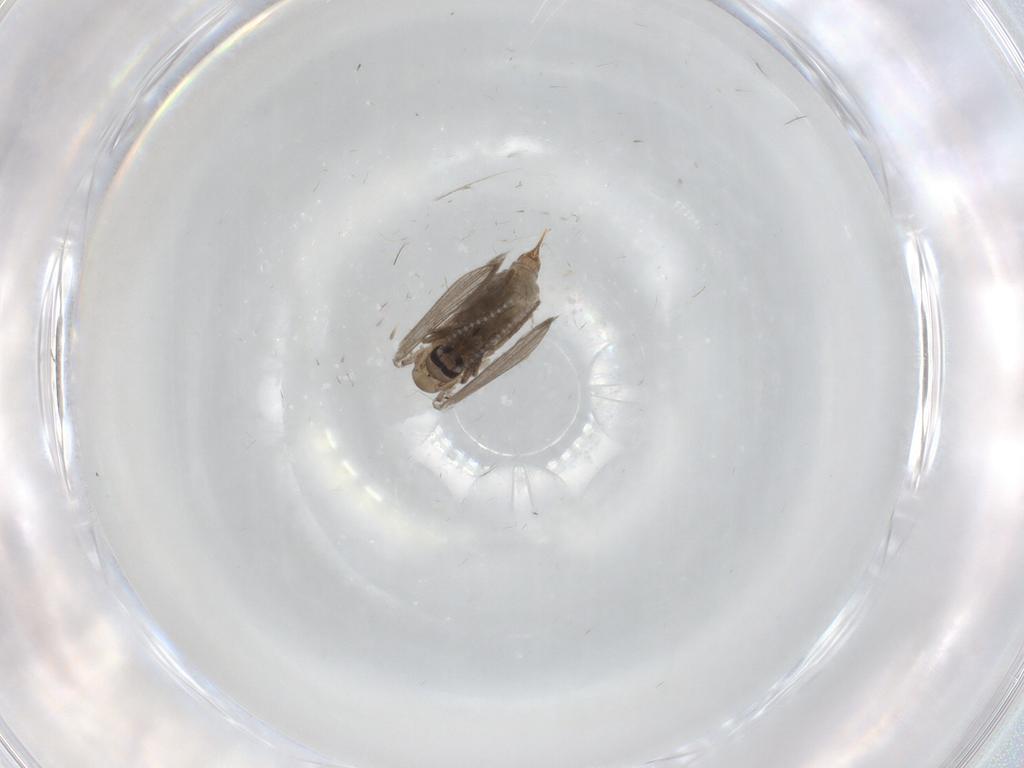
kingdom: Animalia
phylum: Arthropoda
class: Insecta
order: Diptera
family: Psychodidae
